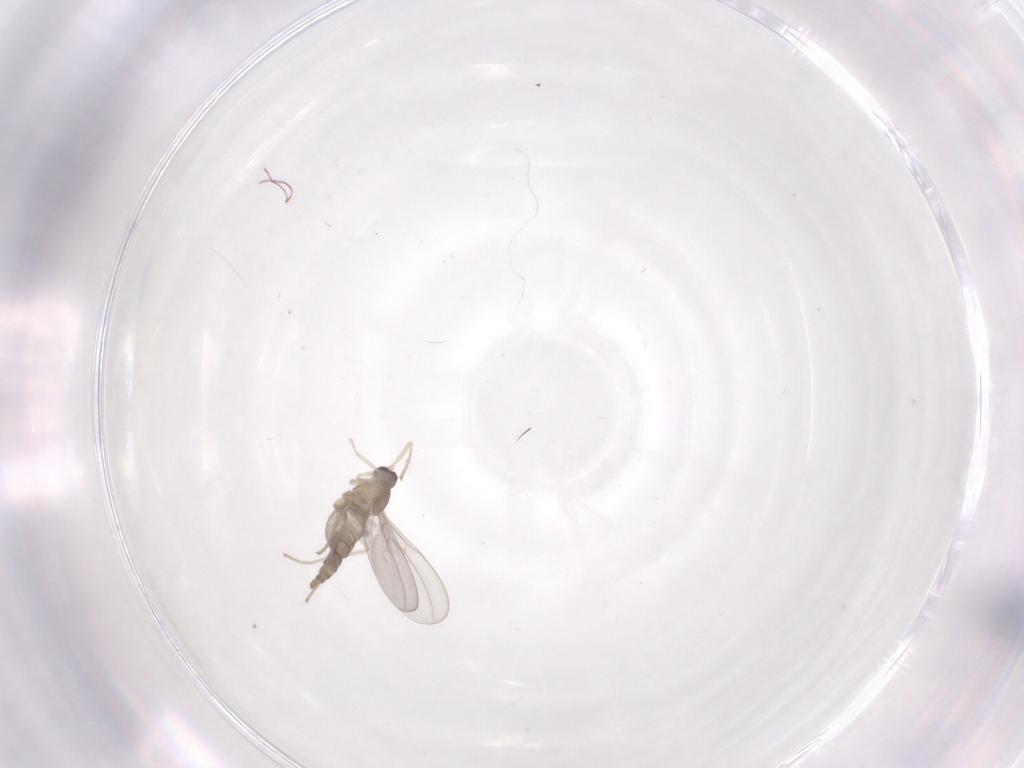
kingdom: Animalia
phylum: Arthropoda
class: Insecta
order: Diptera
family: Cecidomyiidae
